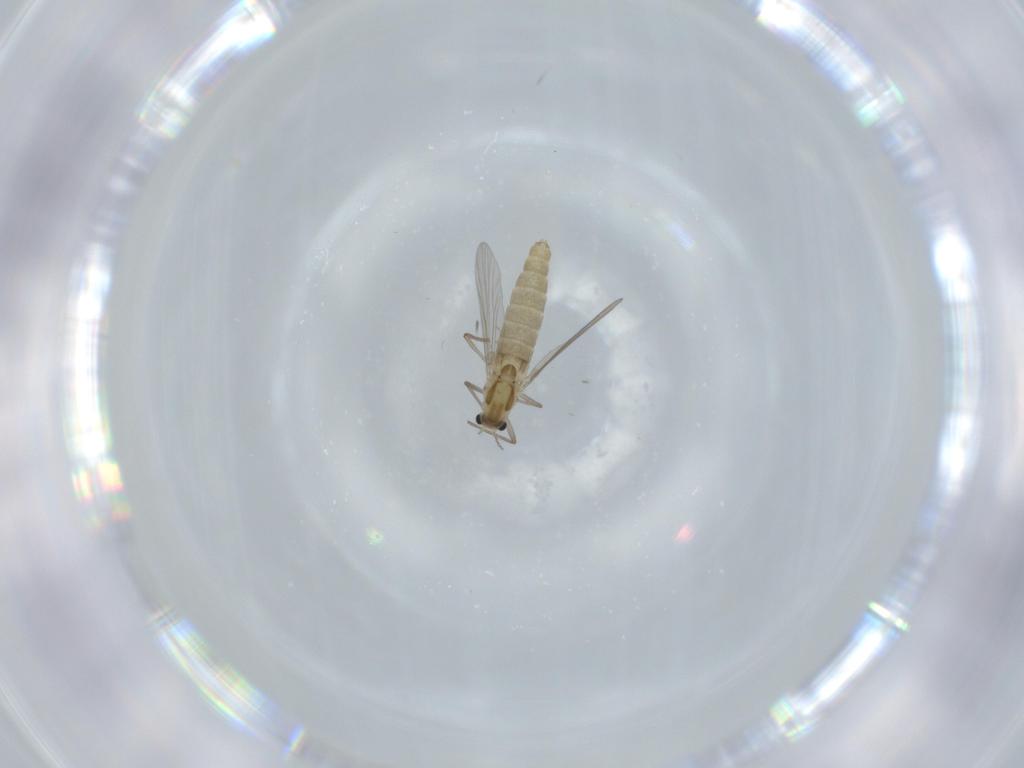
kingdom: Animalia
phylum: Arthropoda
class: Insecta
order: Diptera
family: Chironomidae
